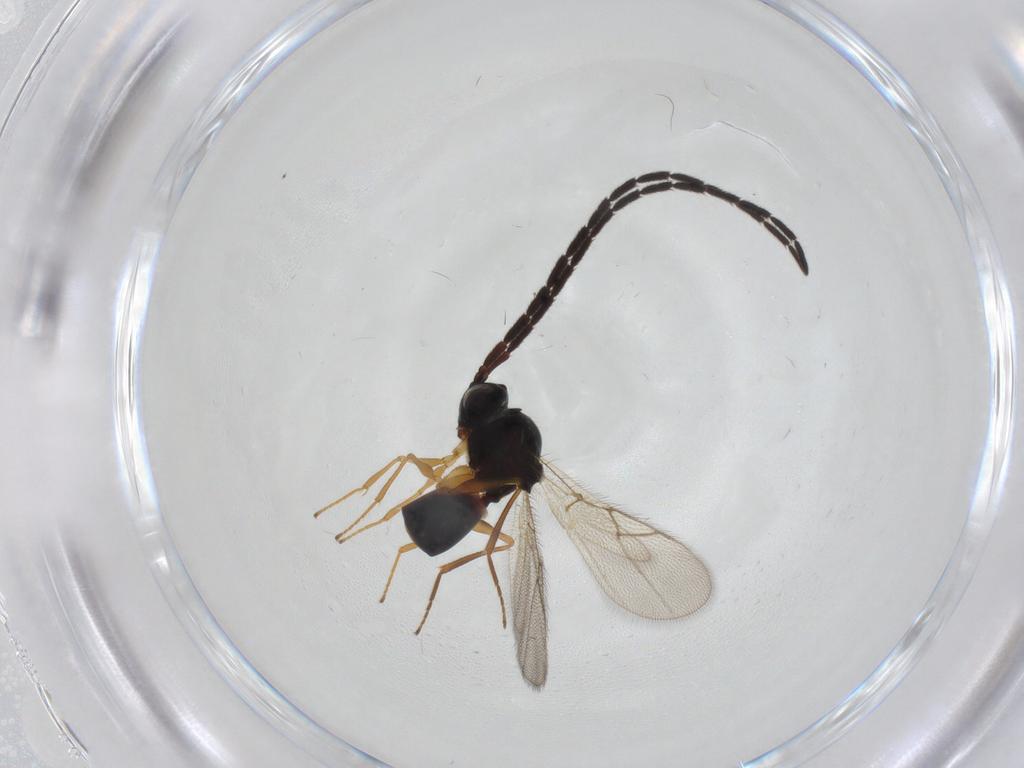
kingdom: Animalia
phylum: Arthropoda
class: Insecta
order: Hymenoptera
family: Figitidae
